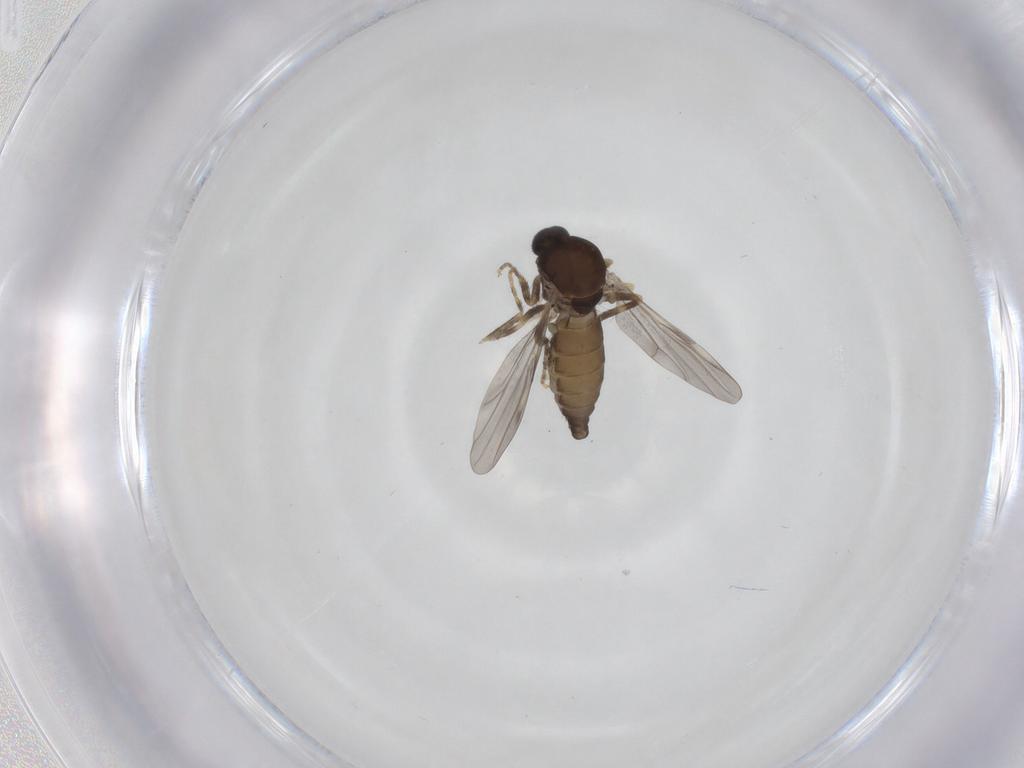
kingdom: Animalia
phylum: Arthropoda
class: Insecta
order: Diptera
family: Ceratopogonidae
